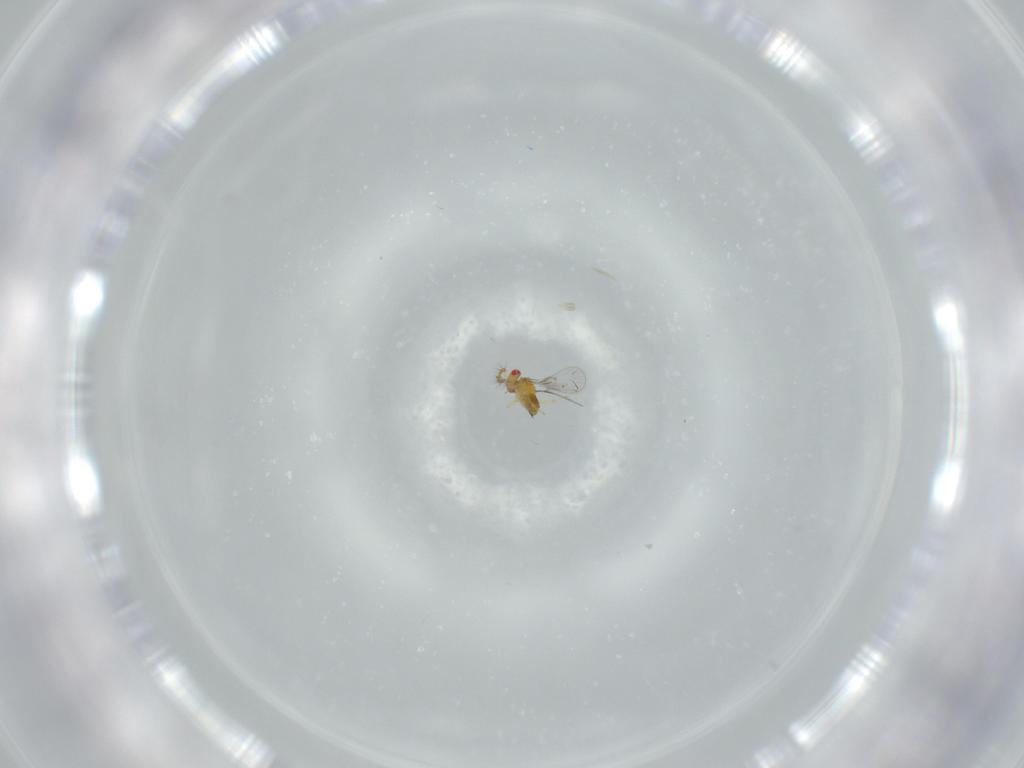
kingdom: Animalia
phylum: Arthropoda
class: Insecta
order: Hymenoptera
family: Trichogrammatidae
